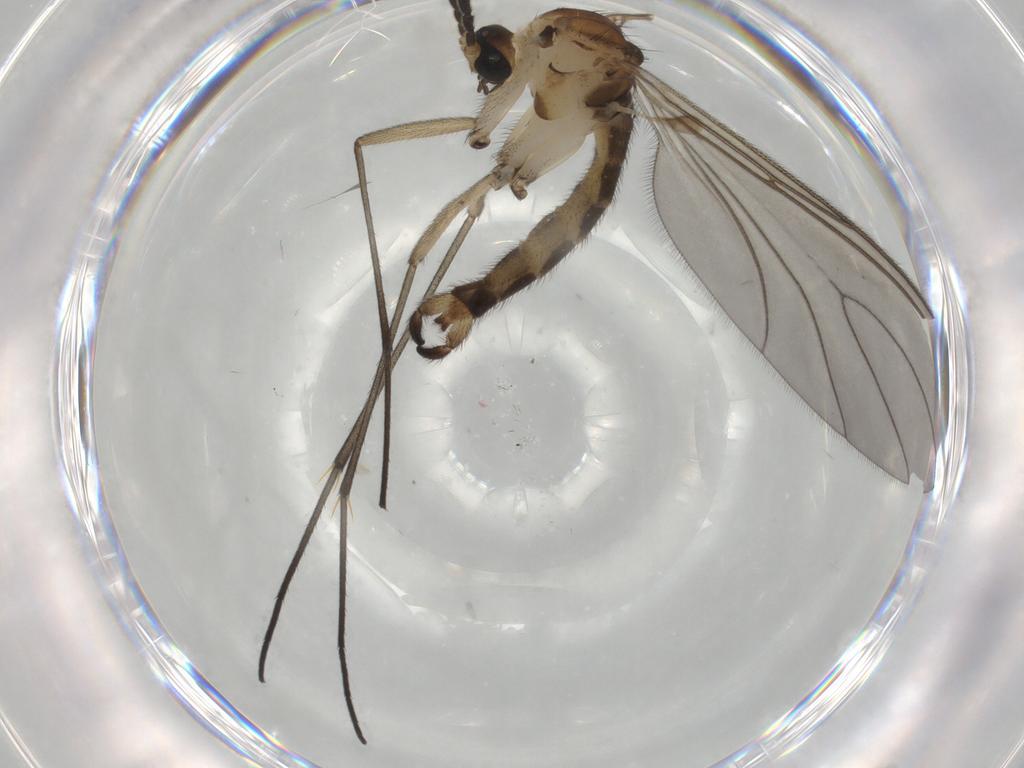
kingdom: Animalia
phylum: Arthropoda
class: Insecta
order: Diptera
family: Sciaridae
